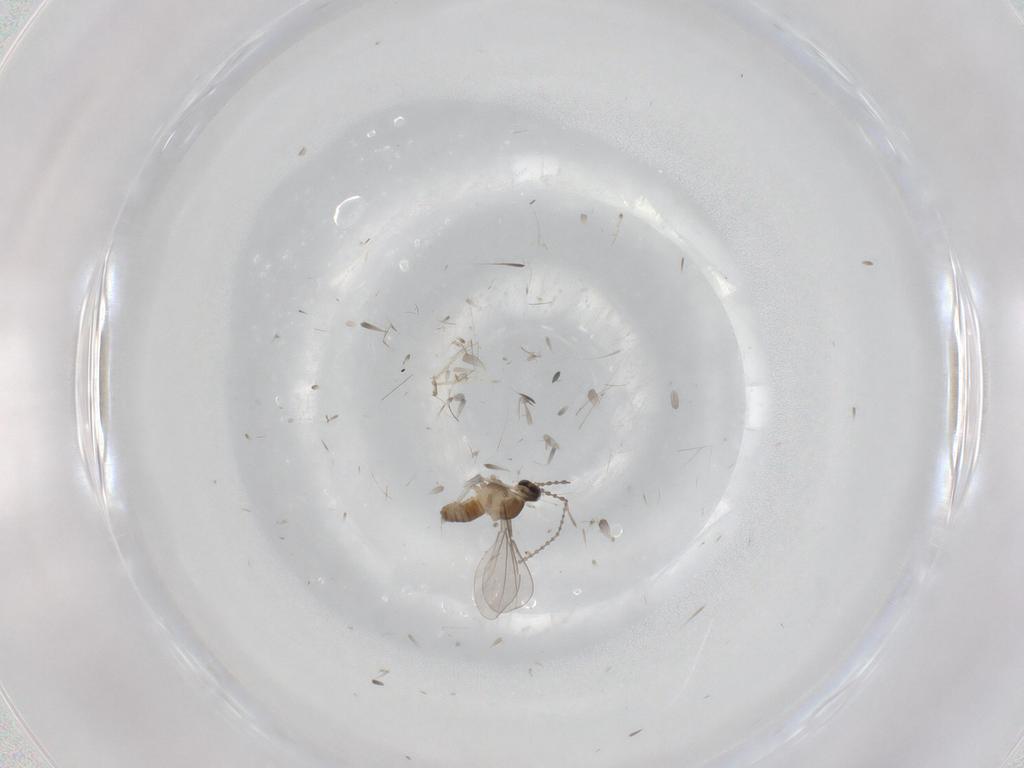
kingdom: Animalia
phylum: Arthropoda
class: Insecta
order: Diptera
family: Cecidomyiidae
